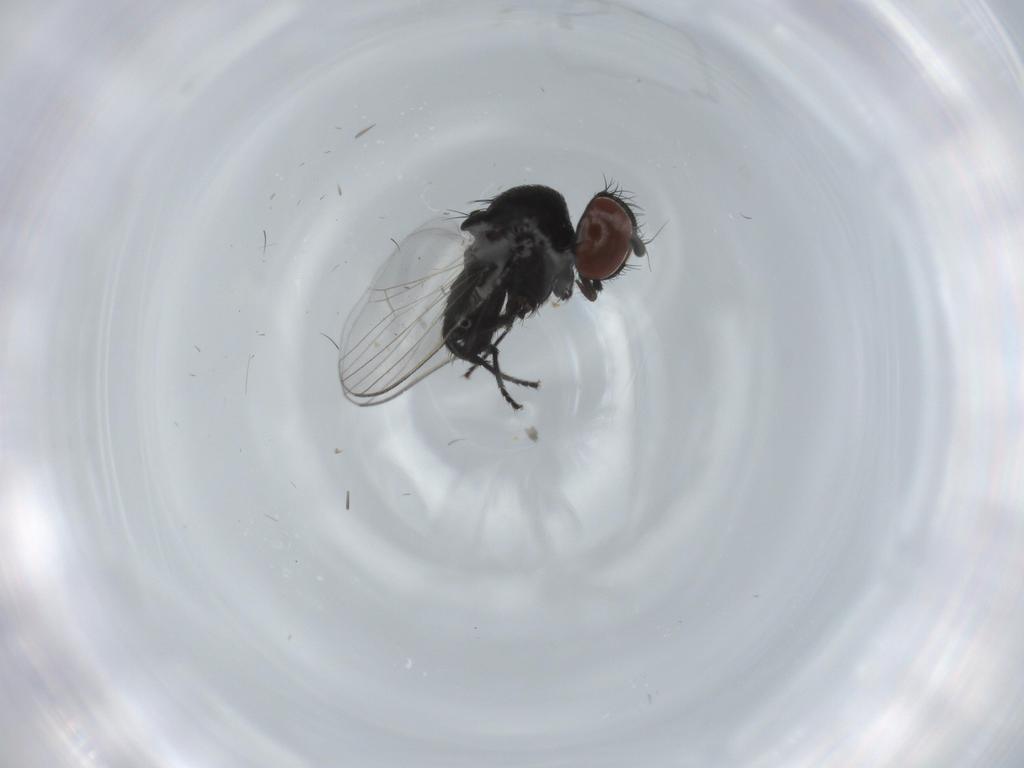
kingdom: Animalia
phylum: Arthropoda
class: Insecta
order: Diptera
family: Milichiidae
